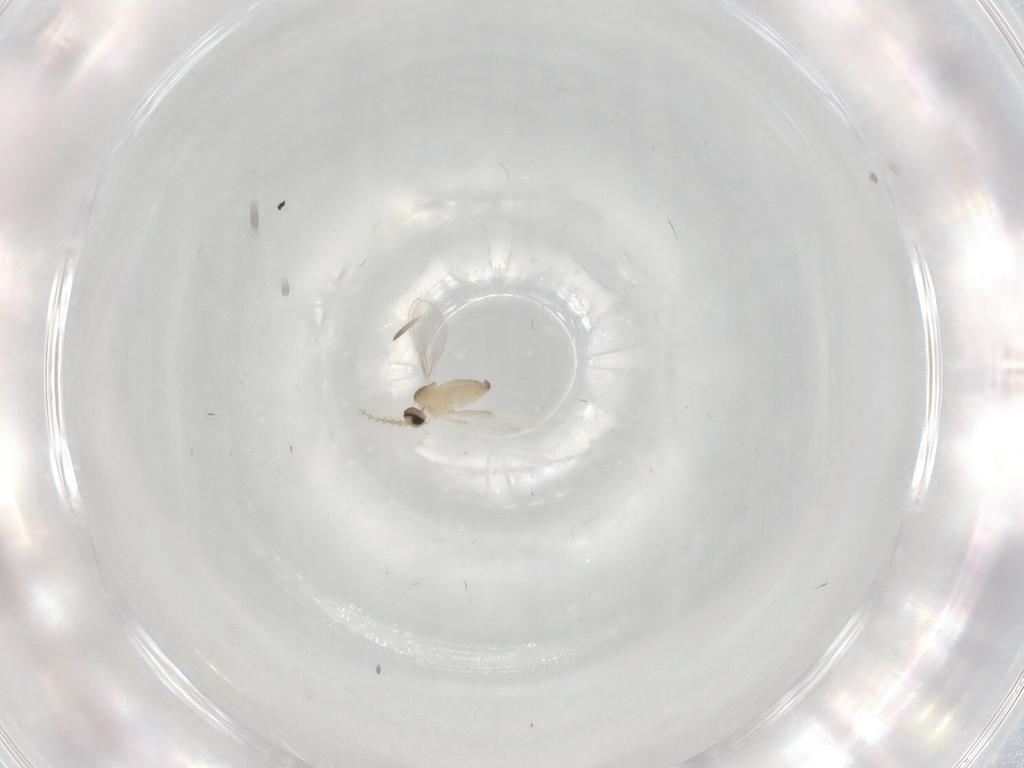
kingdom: Animalia
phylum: Arthropoda
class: Insecta
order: Diptera
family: Cecidomyiidae
